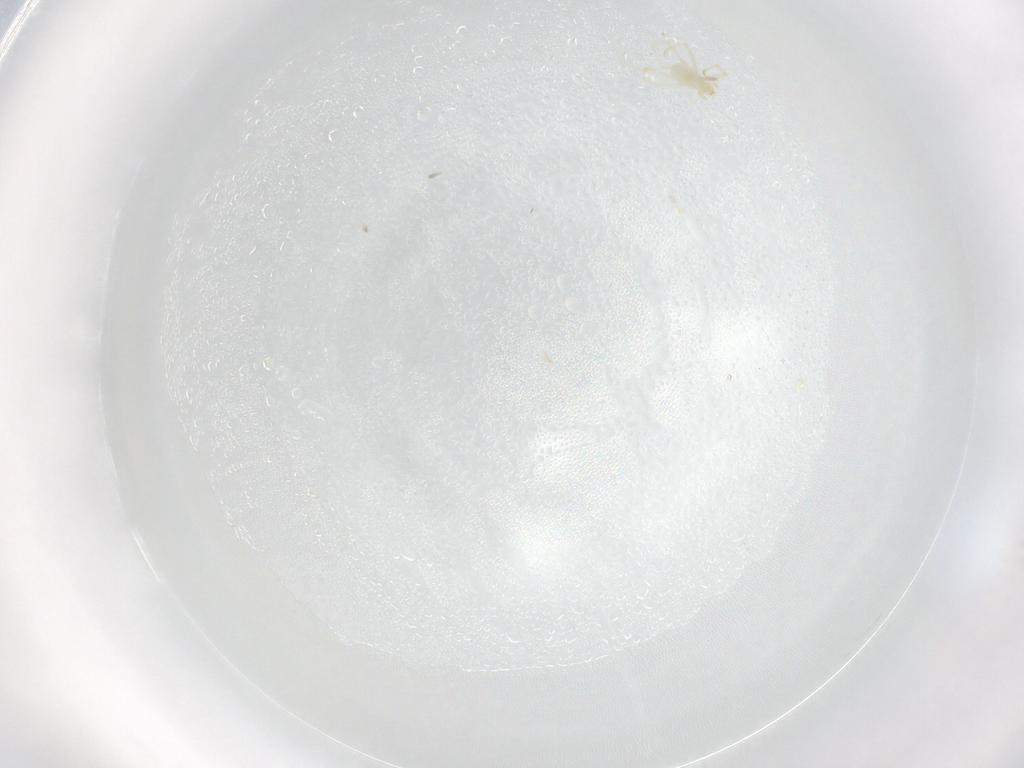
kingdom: Animalia
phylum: Arthropoda
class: Arachnida
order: Trombidiformes
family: Erythraeidae
